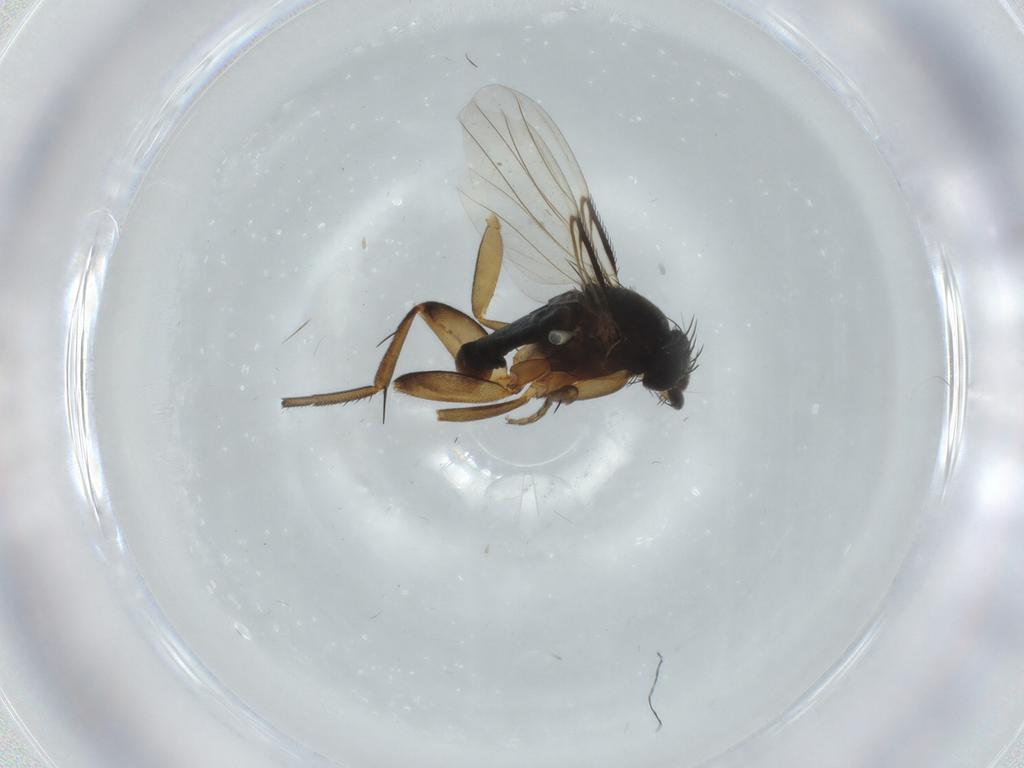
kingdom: Animalia
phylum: Arthropoda
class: Insecta
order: Diptera
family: Phoridae
